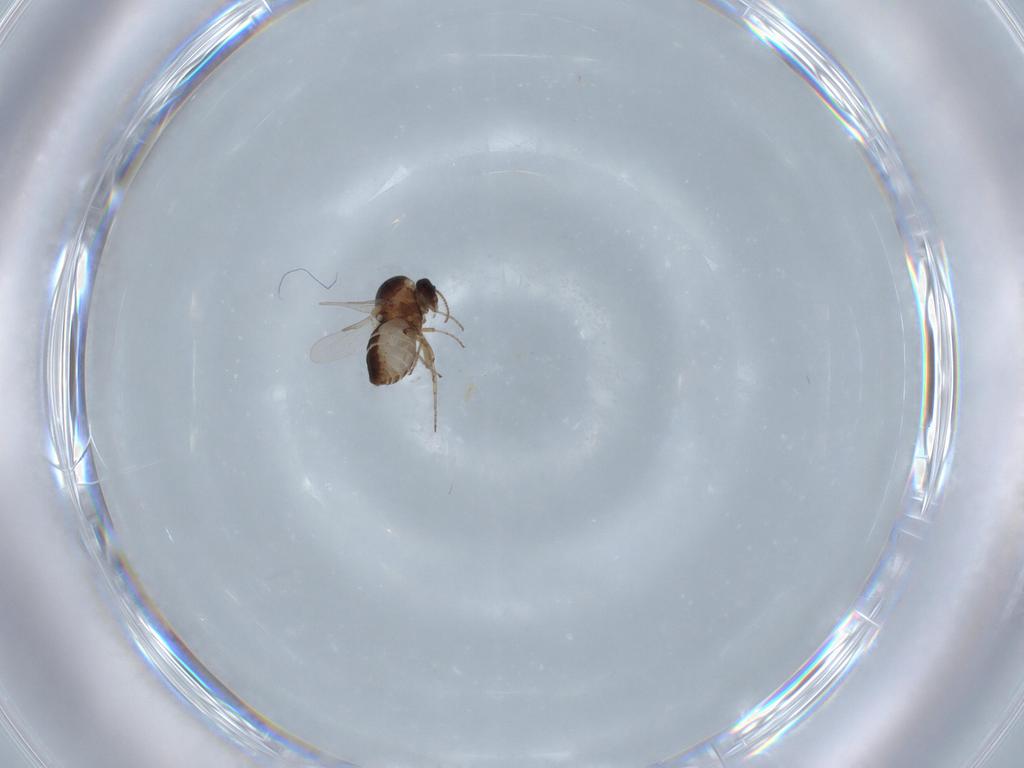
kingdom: Animalia
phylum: Arthropoda
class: Insecta
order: Diptera
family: Ceratopogonidae
